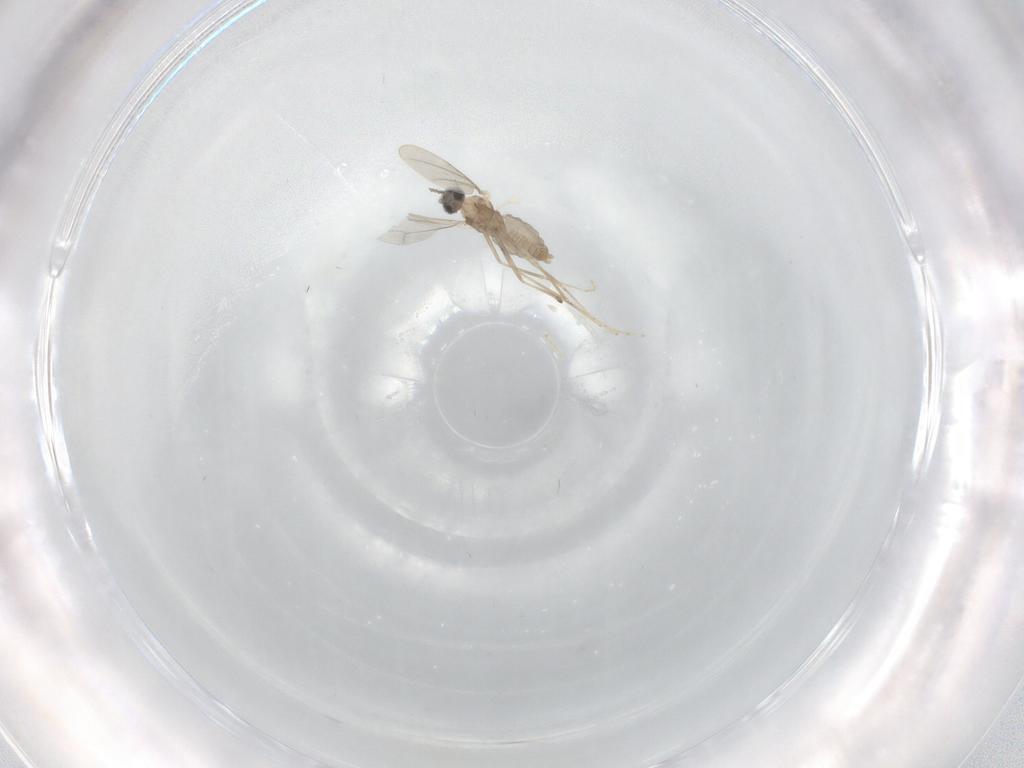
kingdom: Animalia
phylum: Arthropoda
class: Insecta
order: Diptera
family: Cecidomyiidae
